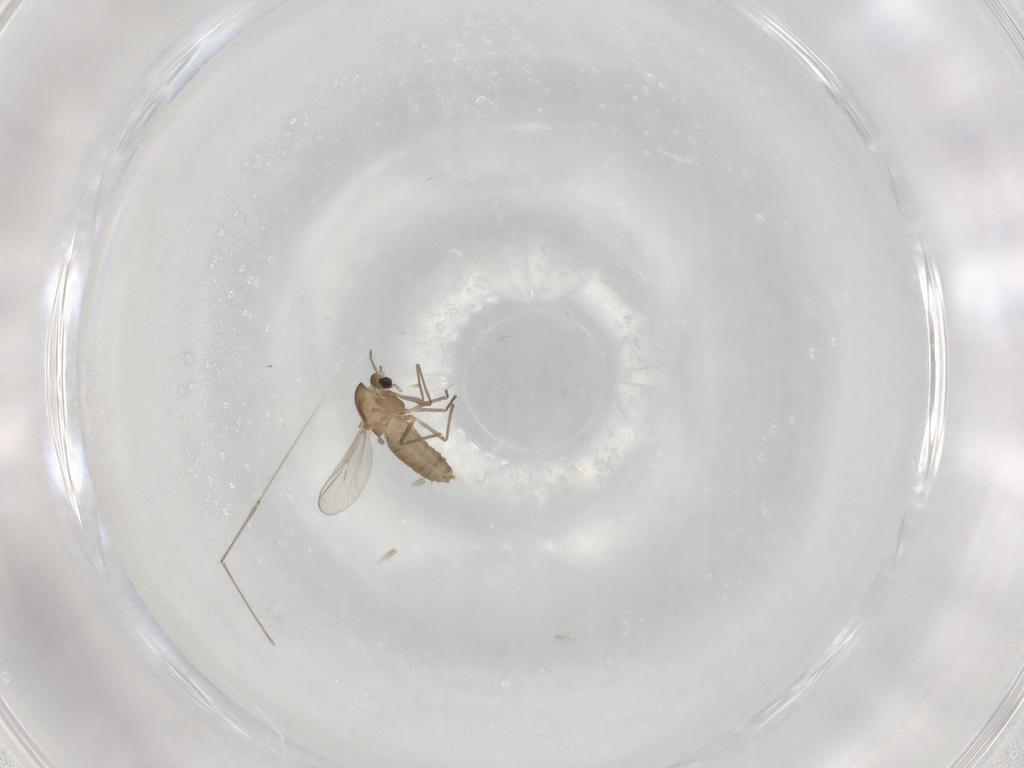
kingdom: Animalia
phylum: Arthropoda
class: Insecta
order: Diptera
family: Chironomidae
